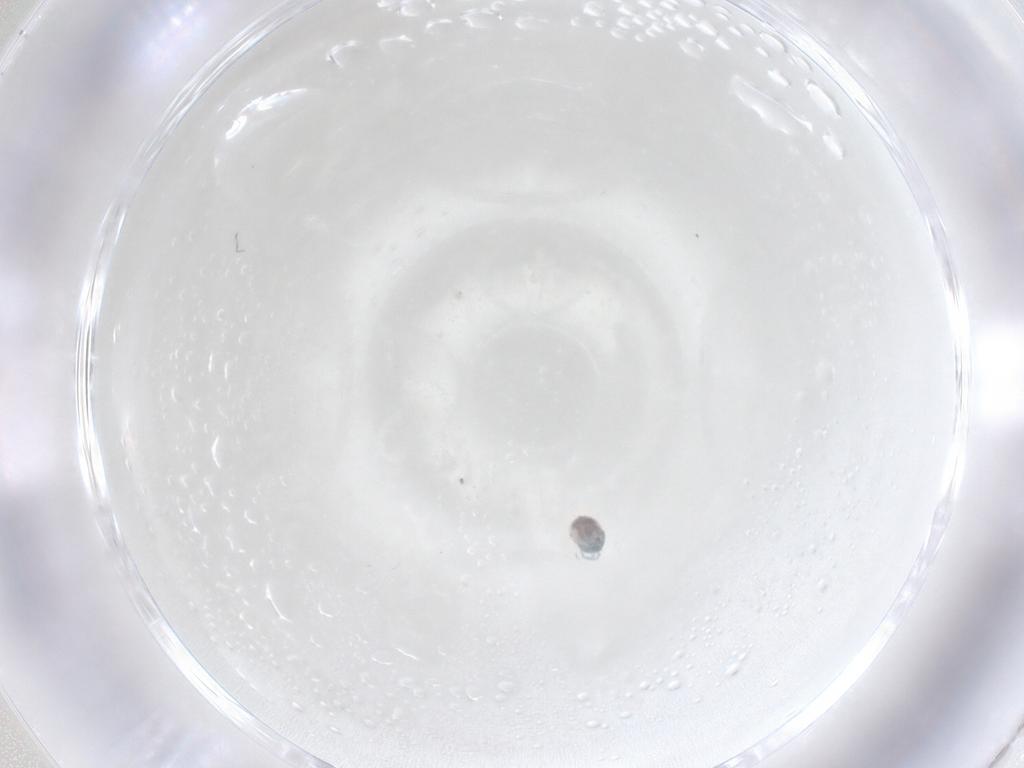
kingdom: Animalia
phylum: Arthropoda
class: Arachnida
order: Trombidiformes
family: Arrenuridae
